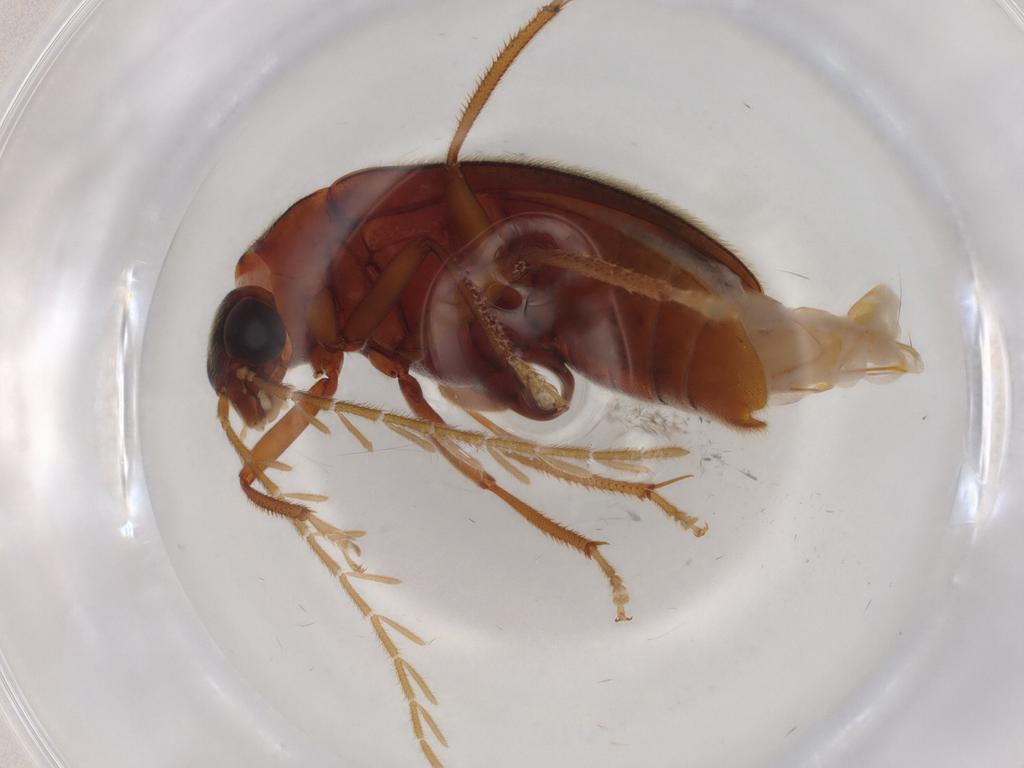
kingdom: Animalia
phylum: Arthropoda
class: Insecta
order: Coleoptera
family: Ptilodactylidae
